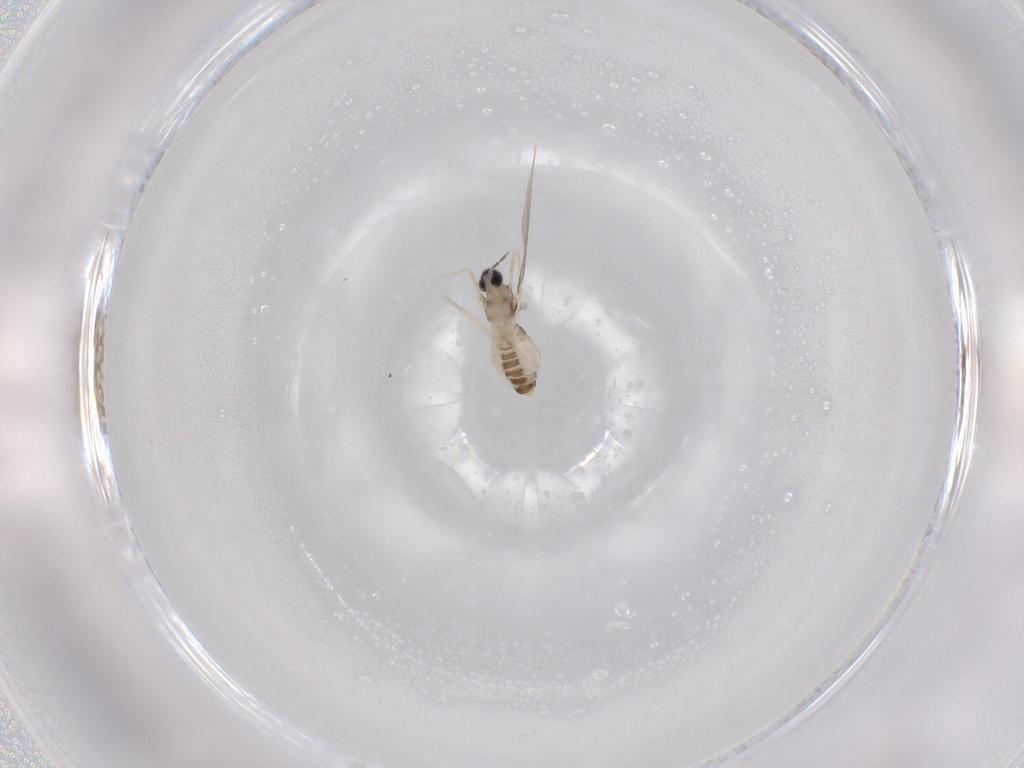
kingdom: Animalia
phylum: Arthropoda
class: Insecta
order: Diptera
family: Cecidomyiidae
